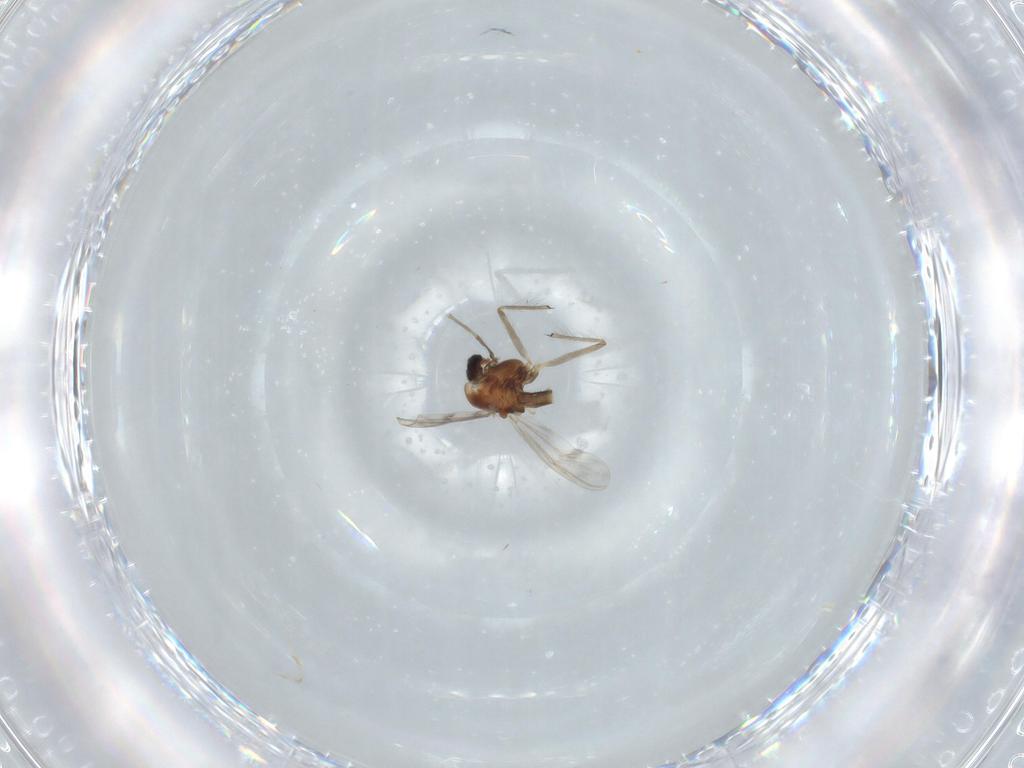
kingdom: Animalia
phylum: Arthropoda
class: Insecta
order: Diptera
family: Chironomidae
